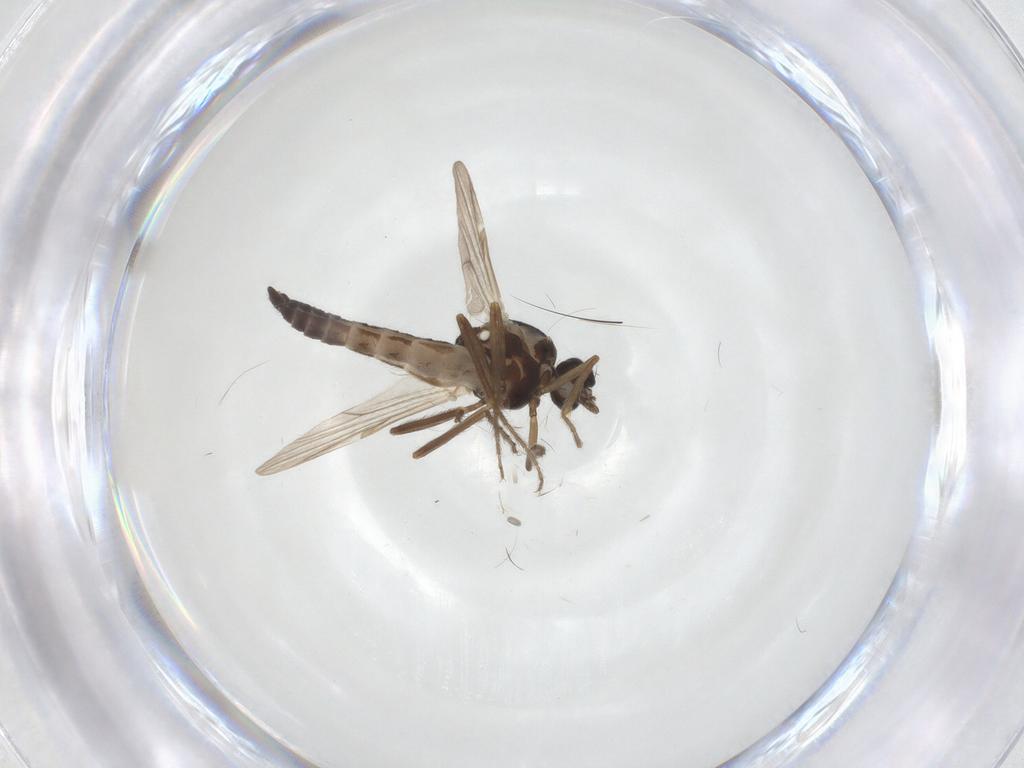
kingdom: Animalia
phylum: Arthropoda
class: Insecta
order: Diptera
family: Ceratopogonidae
